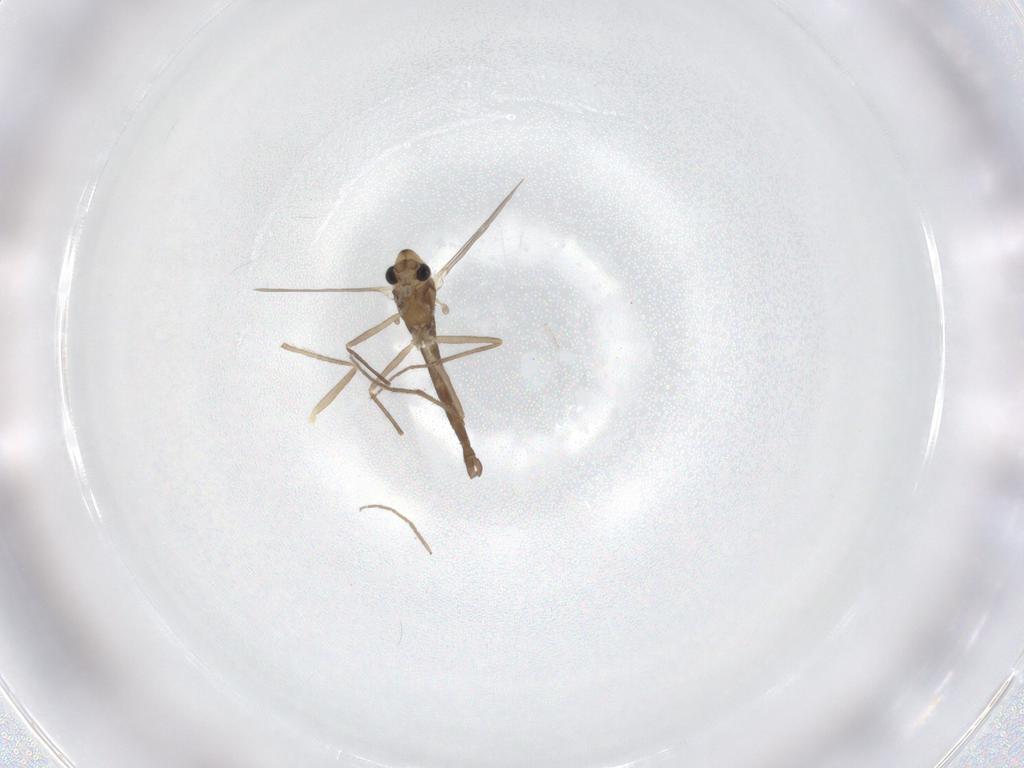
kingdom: Animalia
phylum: Arthropoda
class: Insecta
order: Diptera
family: Chironomidae
